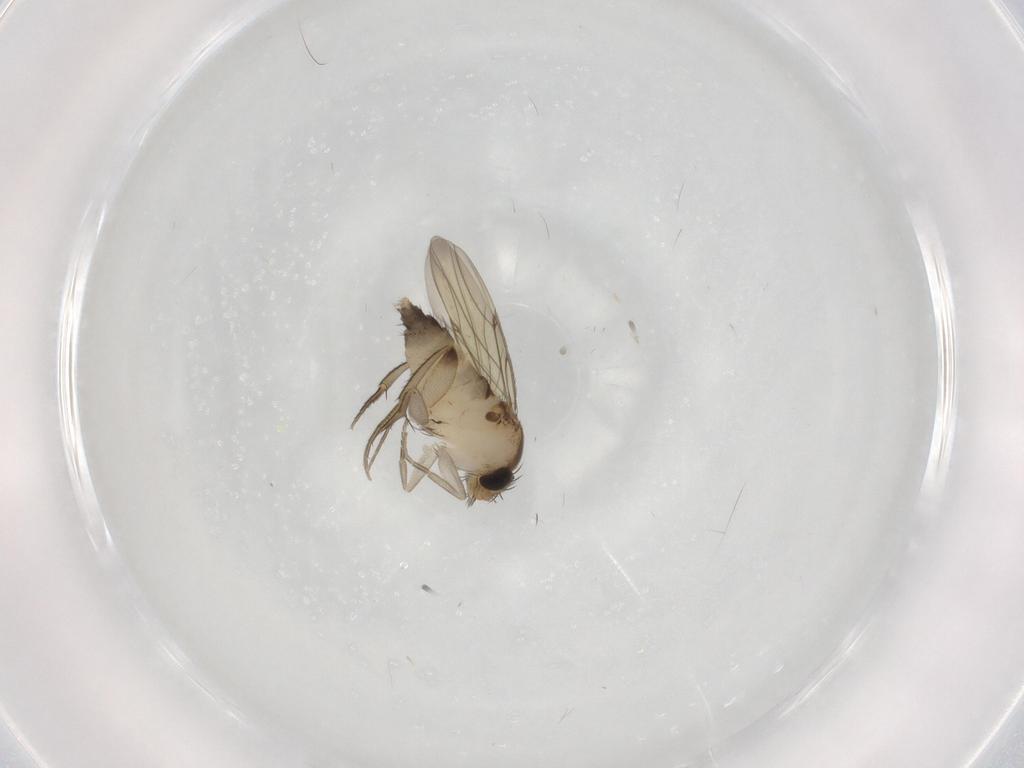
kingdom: Animalia
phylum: Arthropoda
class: Insecta
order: Diptera
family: Phoridae
